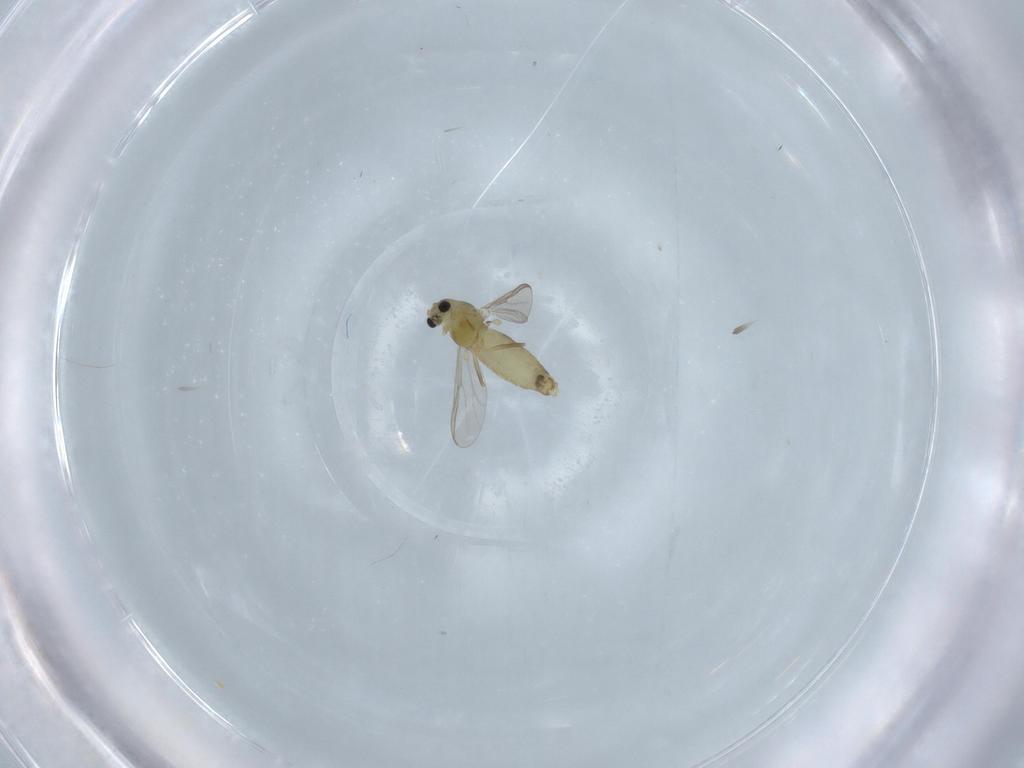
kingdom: Animalia
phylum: Arthropoda
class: Insecta
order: Diptera
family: Chironomidae
